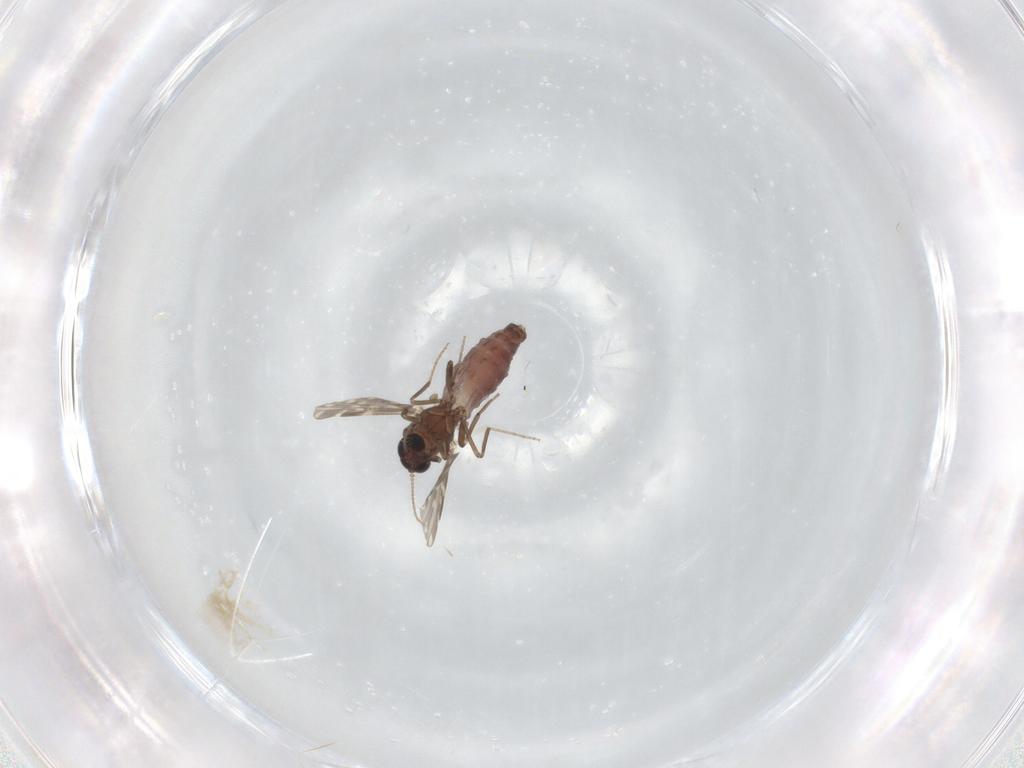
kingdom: Animalia
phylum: Arthropoda
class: Insecta
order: Diptera
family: Ceratopogonidae
